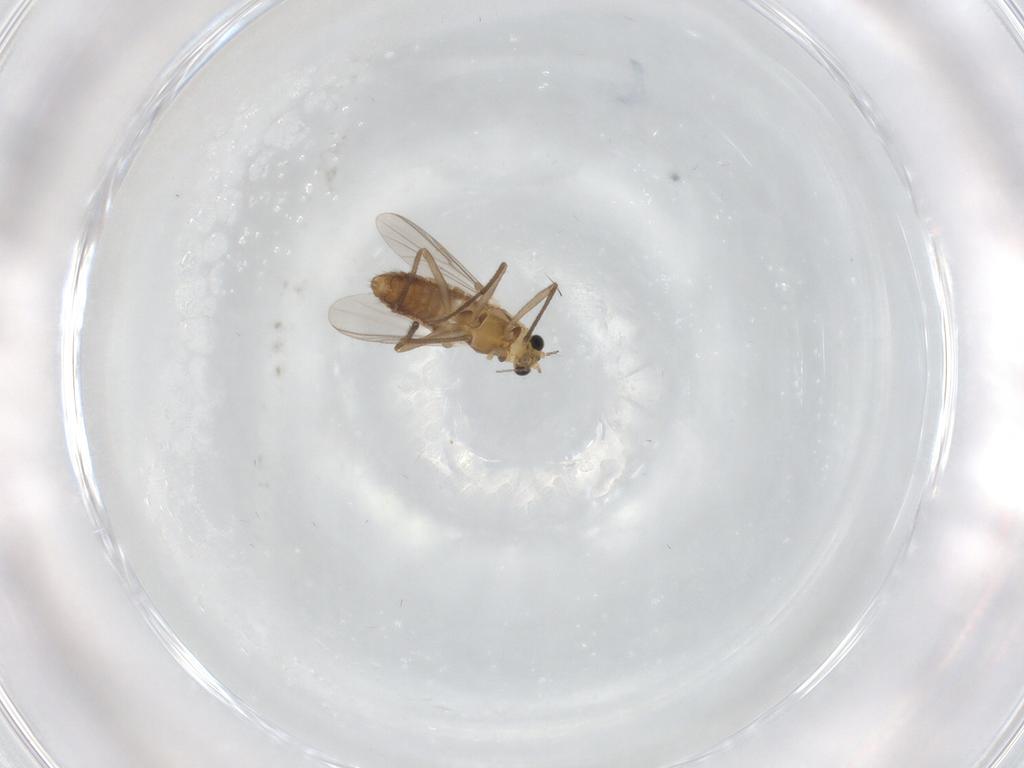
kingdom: Animalia
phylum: Arthropoda
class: Insecta
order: Diptera
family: Chironomidae
